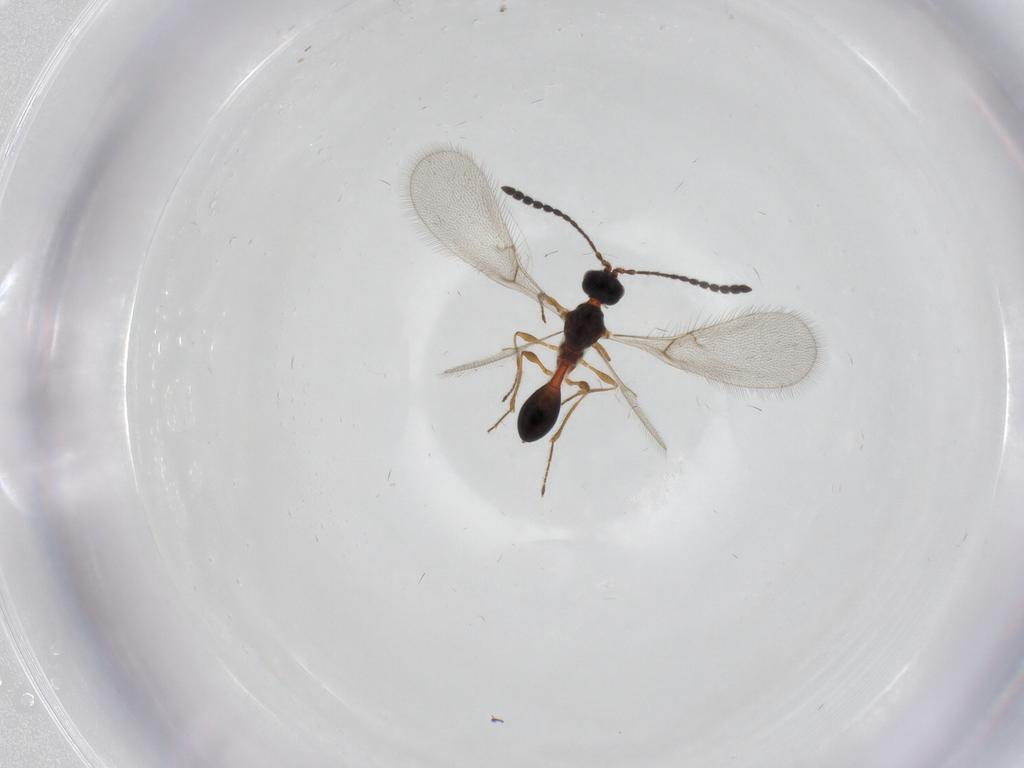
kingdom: Animalia
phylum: Arthropoda
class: Insecta
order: Hymenoptera
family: Diapriidae
